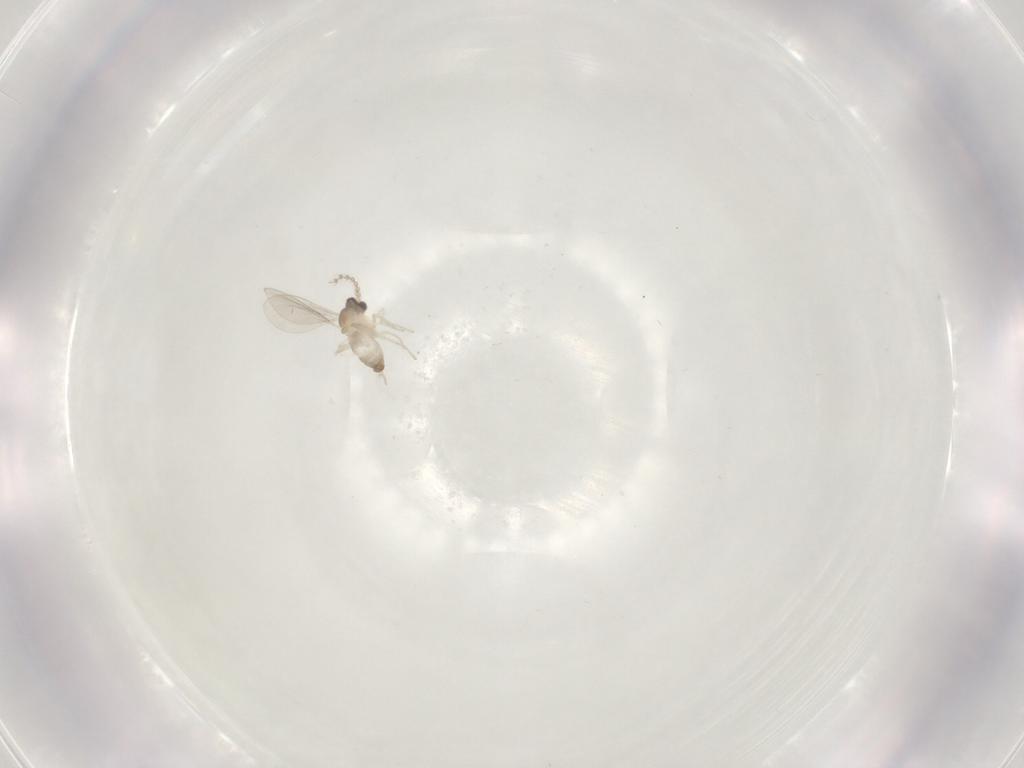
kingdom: Animalia
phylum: Arthropoda
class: Insecta
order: Diptera
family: Cecidomyiidae
